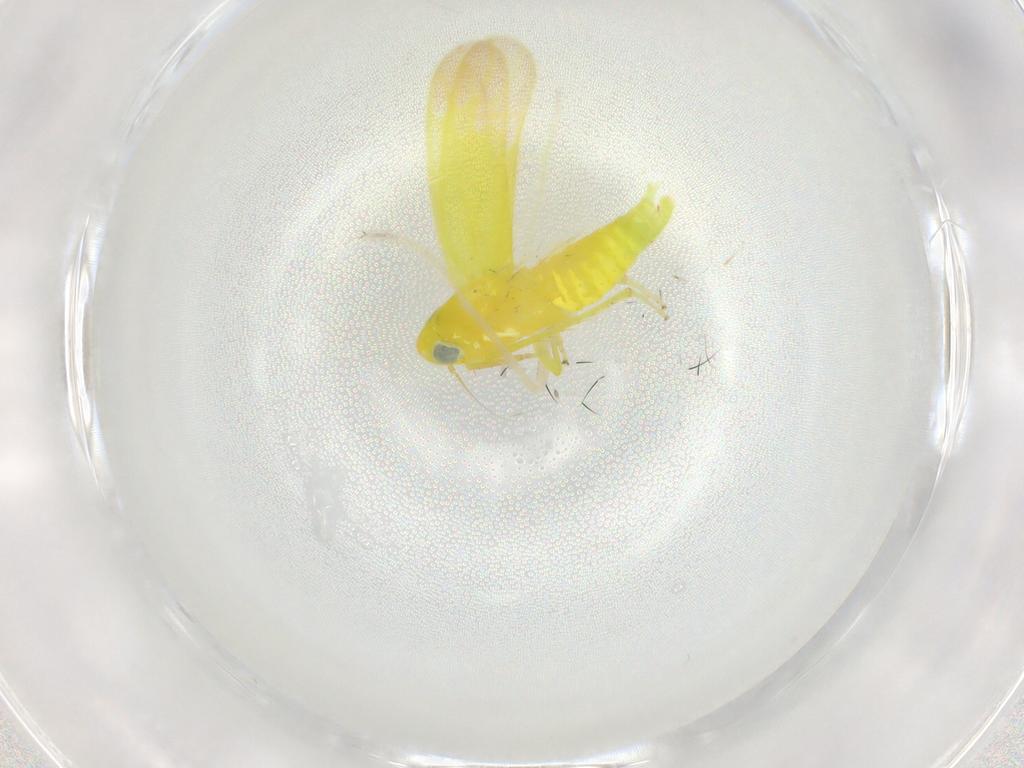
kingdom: Animalia
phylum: Arthropoda
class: Insecta
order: Hemiptera
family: Cicadellidae
